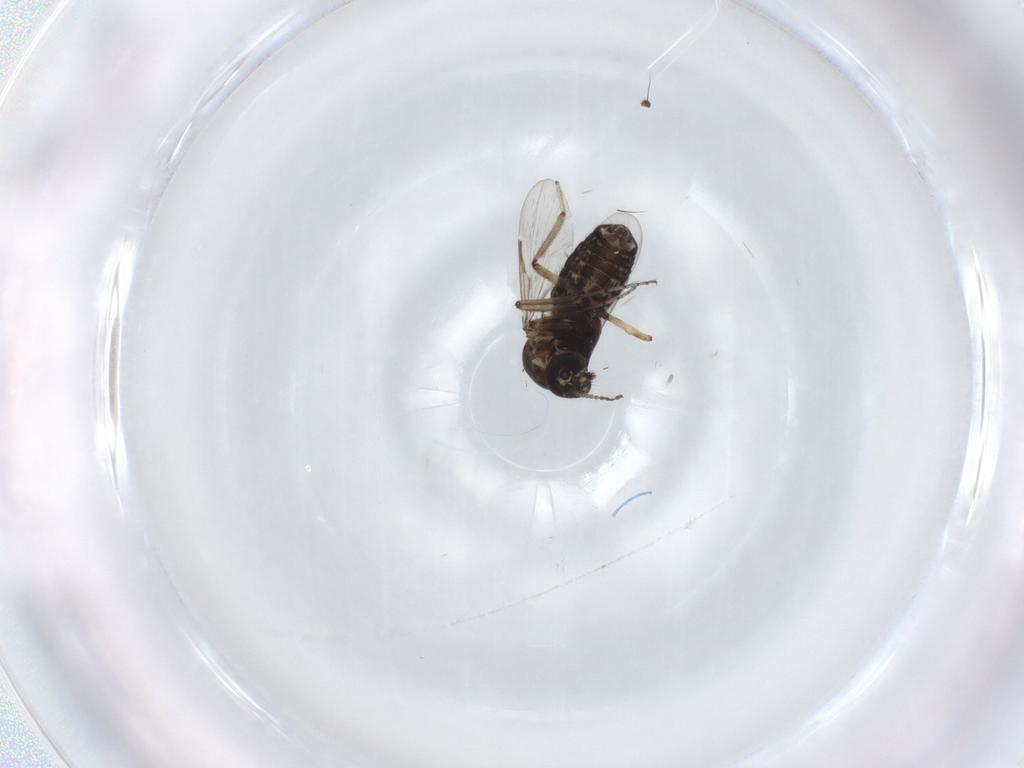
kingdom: Animalia
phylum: Arthropoda
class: Insecta
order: Diptera
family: Ceratopogonidae
